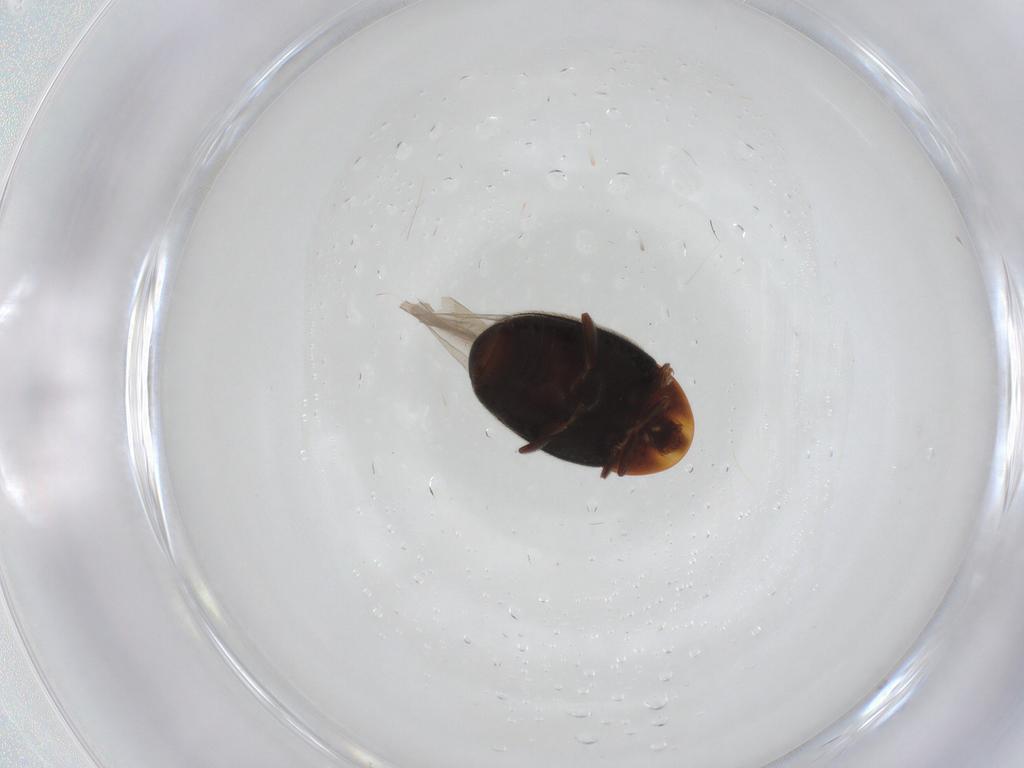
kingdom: Animalia
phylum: Arthropoda
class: Insecta
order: Coleoptera
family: Corylophidae
